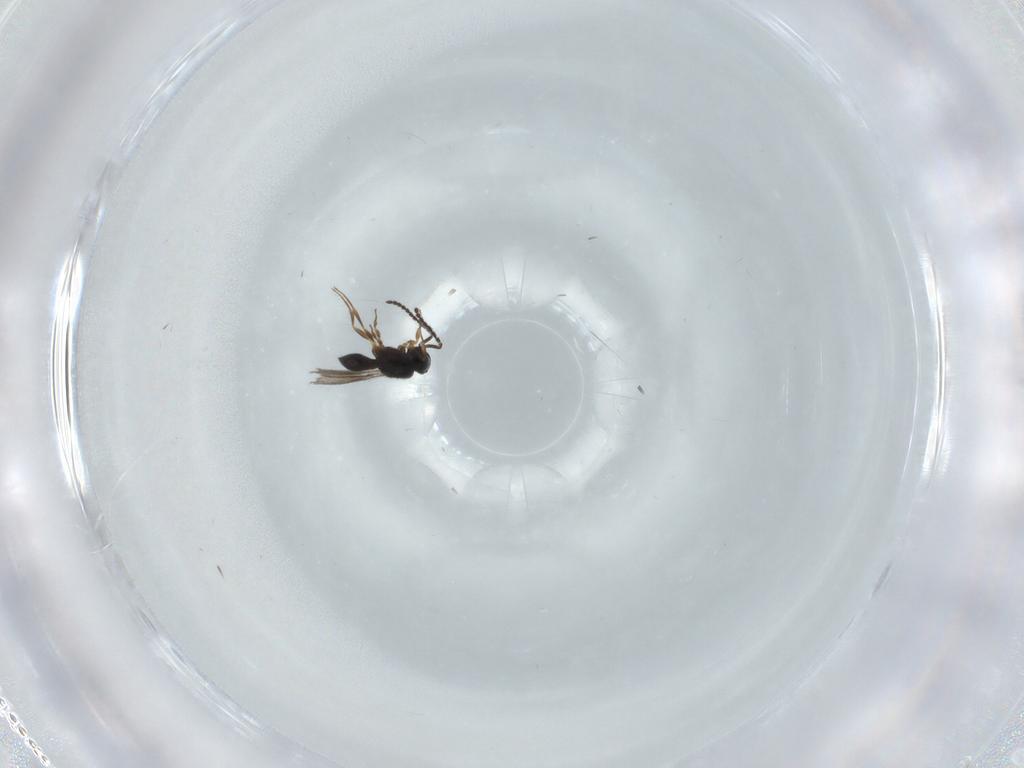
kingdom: Animalia
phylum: Arthropoda
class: Insecta
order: Hymenoptera
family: Scelionidae
